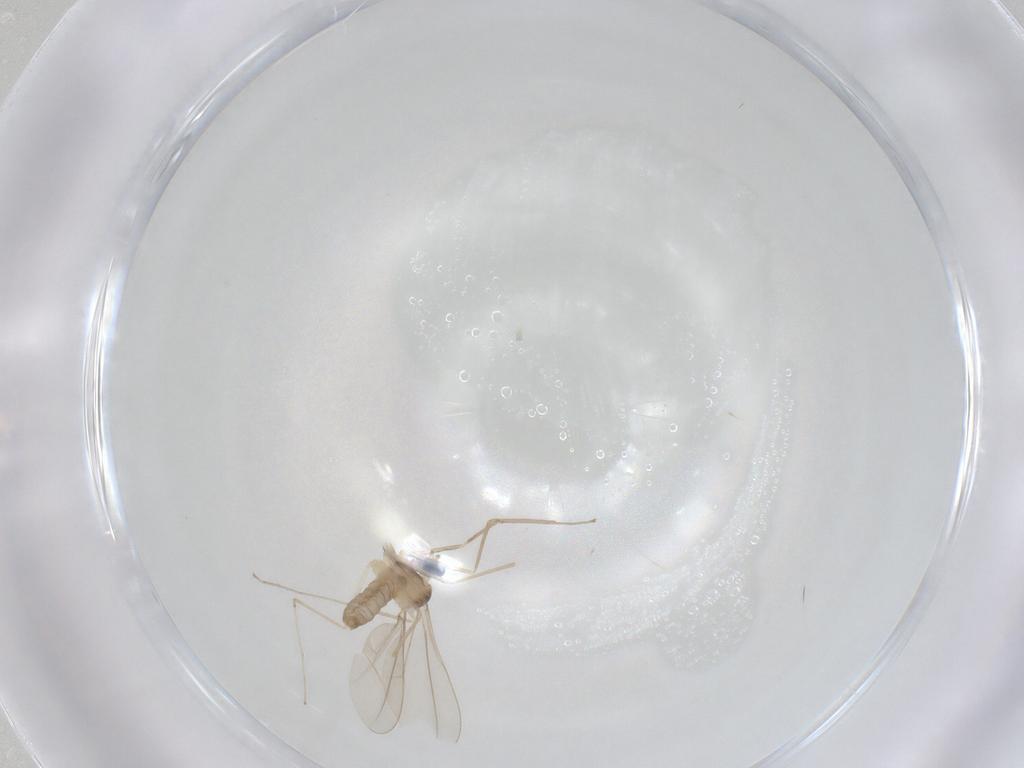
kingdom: Animalia
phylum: Arthropoda
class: Insecta
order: Diptera
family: Cecidomyiidae
